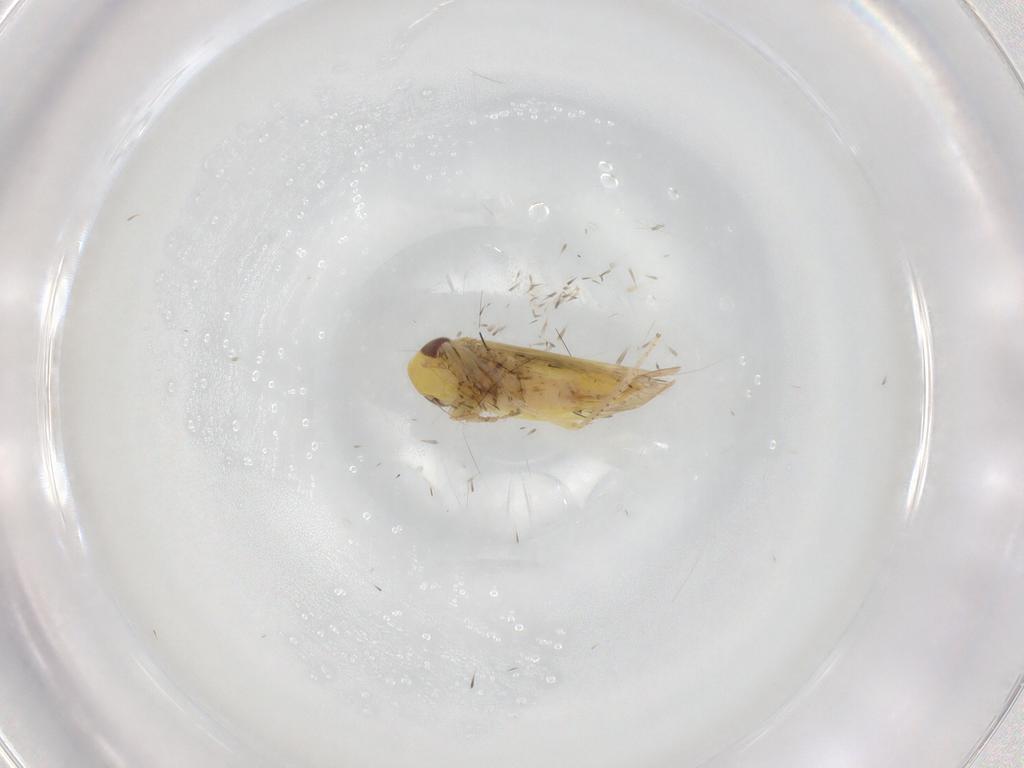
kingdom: Animalia
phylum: Arthropoda
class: Insecta
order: Hemiptera
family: Cicadellidae
